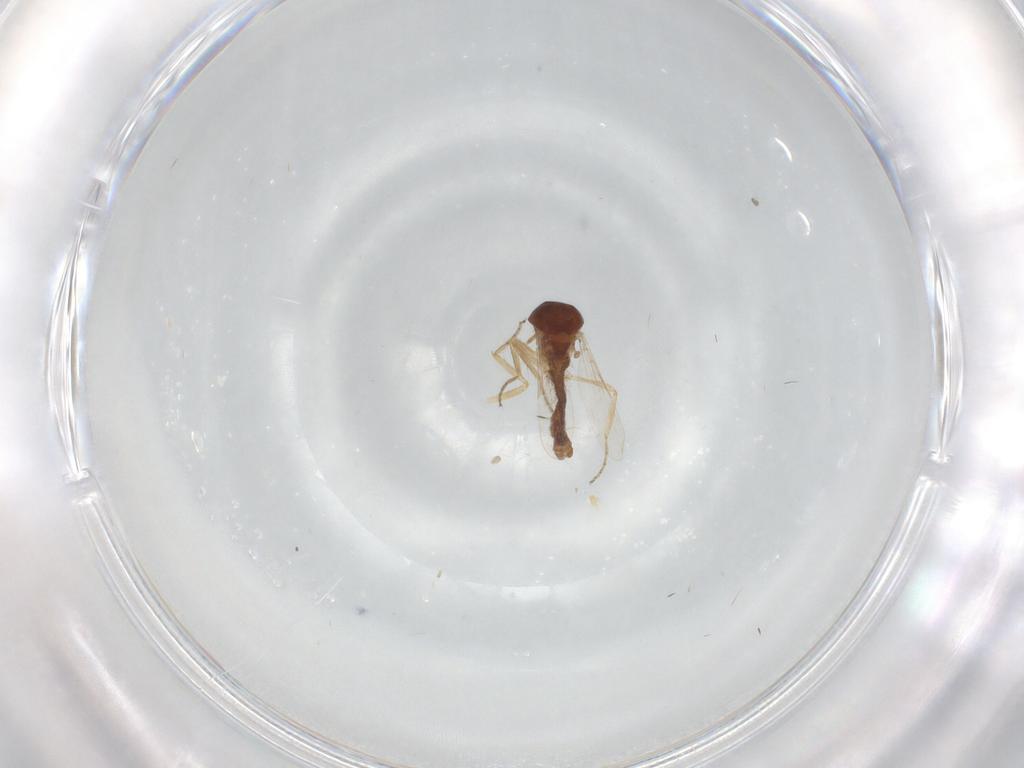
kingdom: Animalia
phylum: Arthropoda
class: Insecta
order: Diptera
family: Ceratopogonidae
